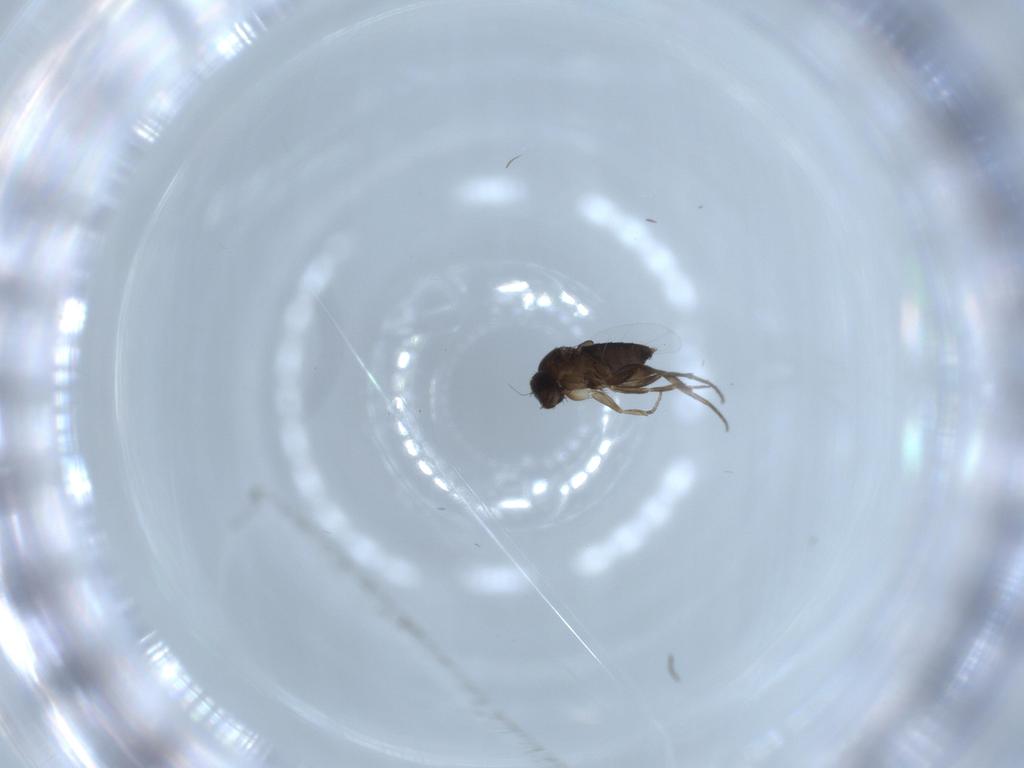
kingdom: Animalia
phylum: Arthropoda
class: Insecta
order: Diptera
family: Phoridae
